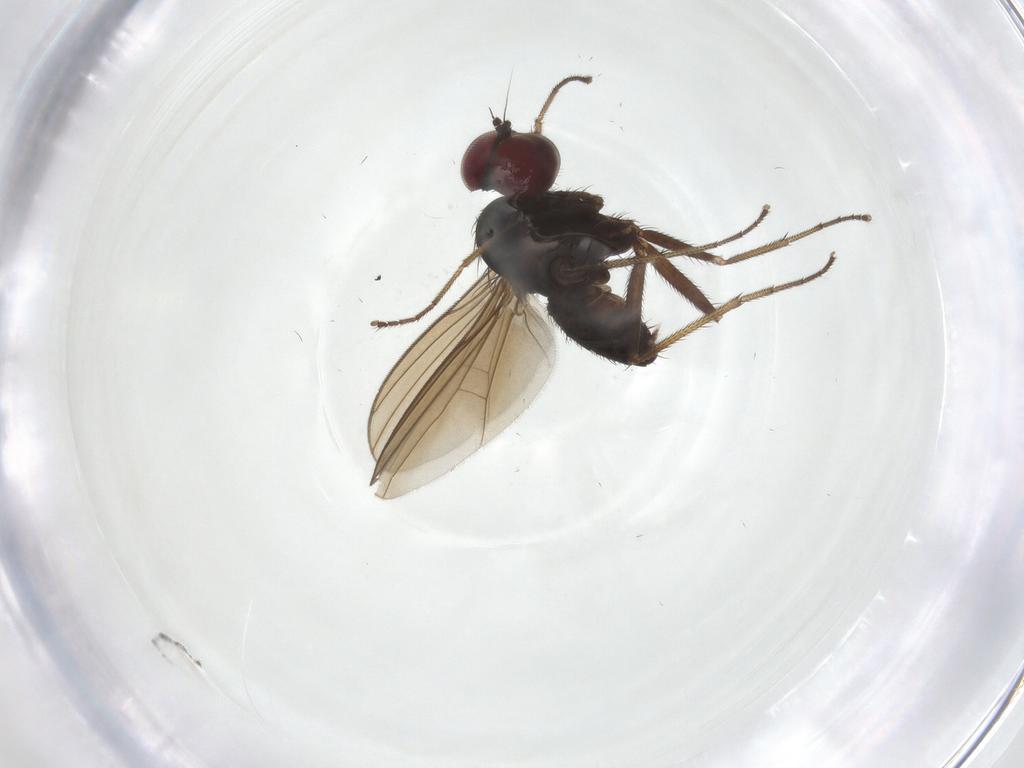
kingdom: Animalia
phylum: Arthropoda
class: Insecta
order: Diptera
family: Dolichopodidae
